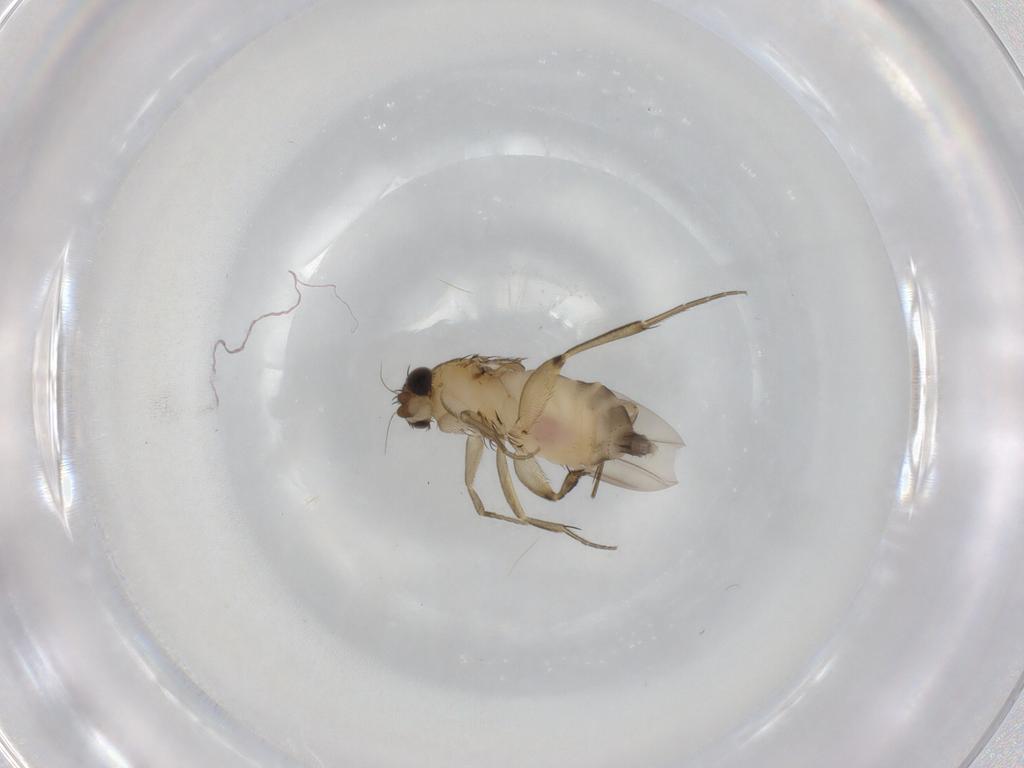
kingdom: Animalia
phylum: Arthropoda
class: Insecta
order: Diptera
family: Phoridae
